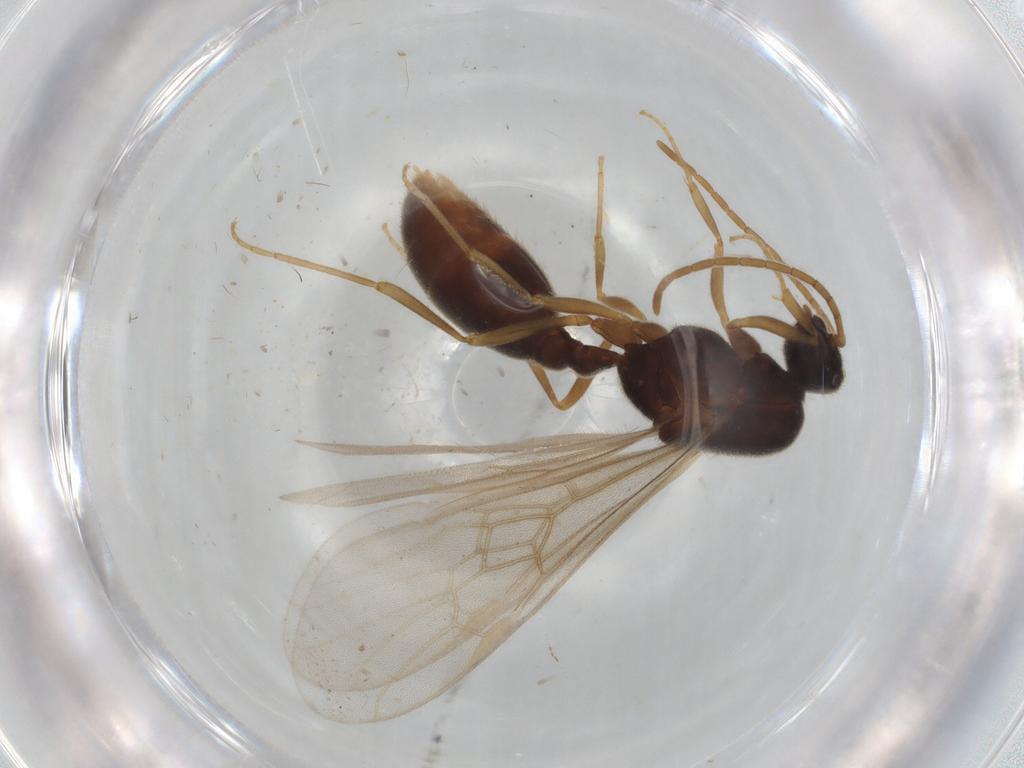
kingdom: Animalia
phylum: Arthropoda
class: Insecta
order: Hymenoptera
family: Formicidae
